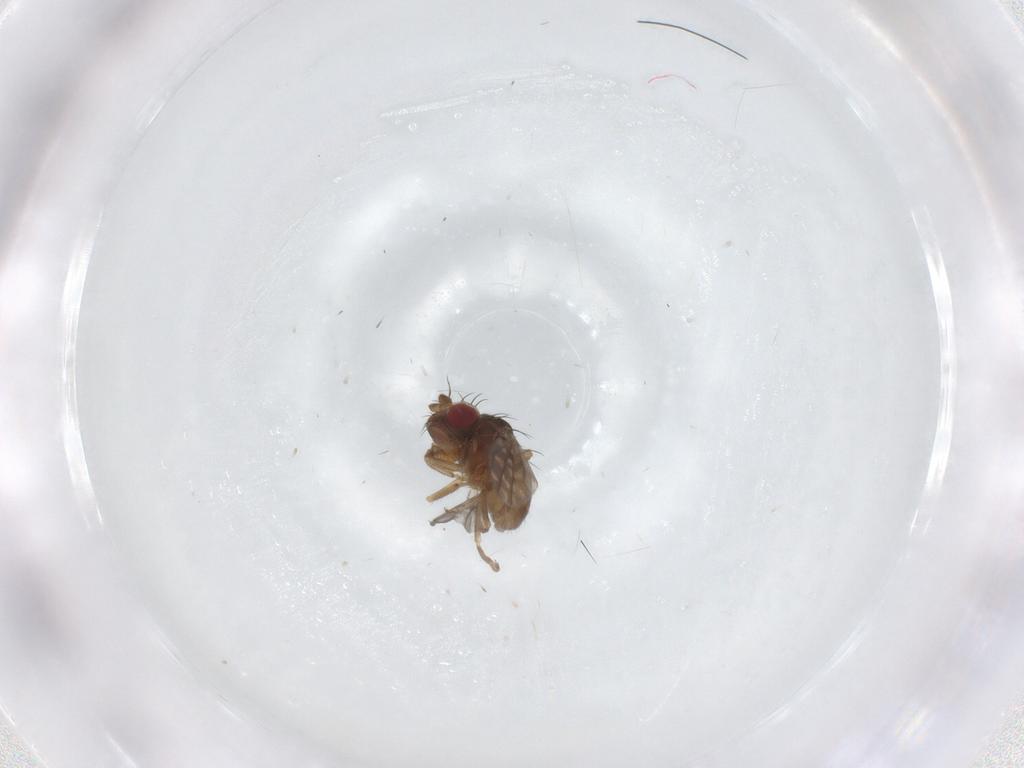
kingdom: Animalia
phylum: Arthropoda
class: Insecta
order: Diptera
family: Ephydridae
